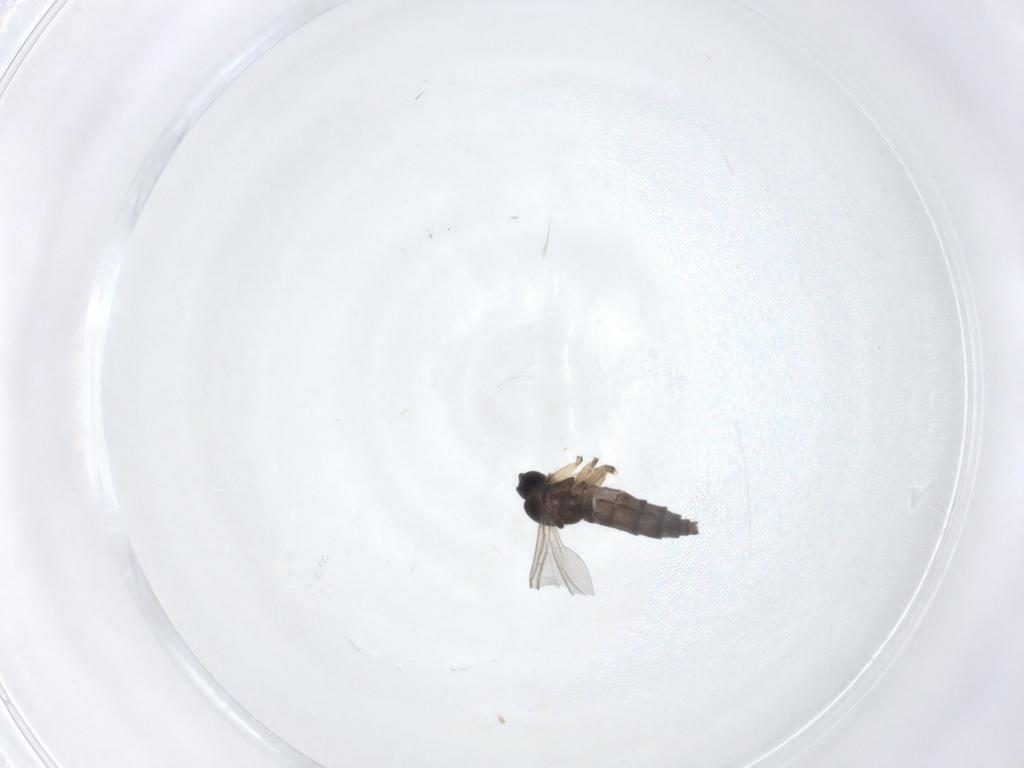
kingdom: Animalia
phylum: Arthropoda
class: Insecta
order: Diptera
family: Sciaridae
